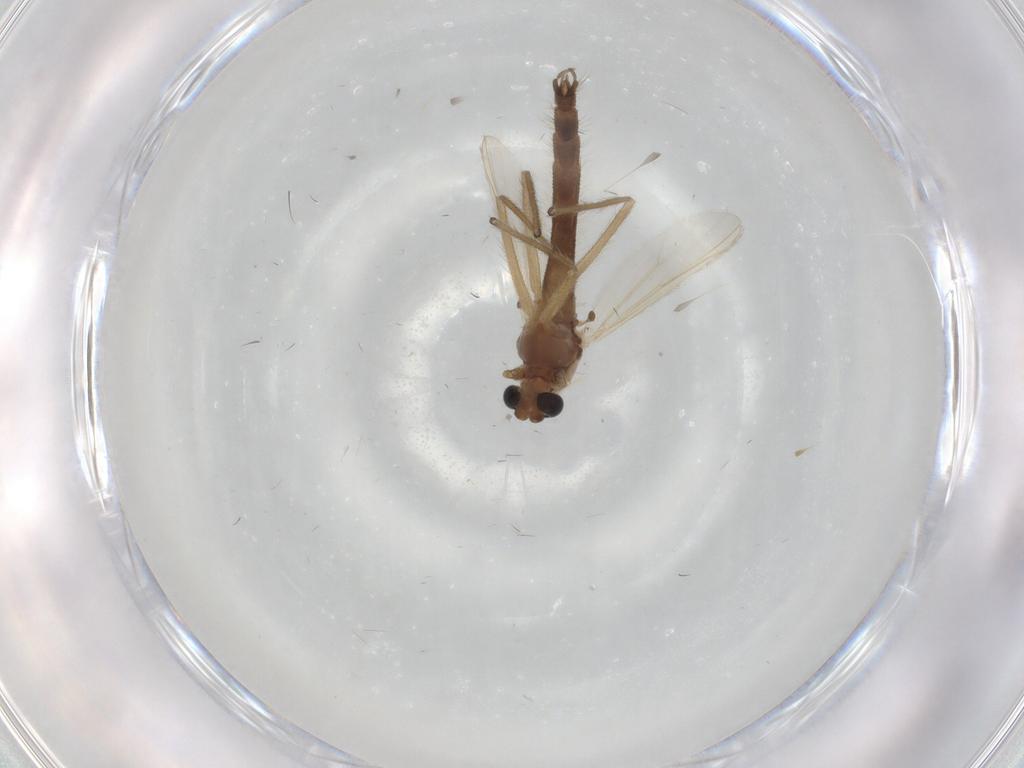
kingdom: Animalia
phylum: Arthropoda
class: Insecta
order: Diptera
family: Chironomidae
